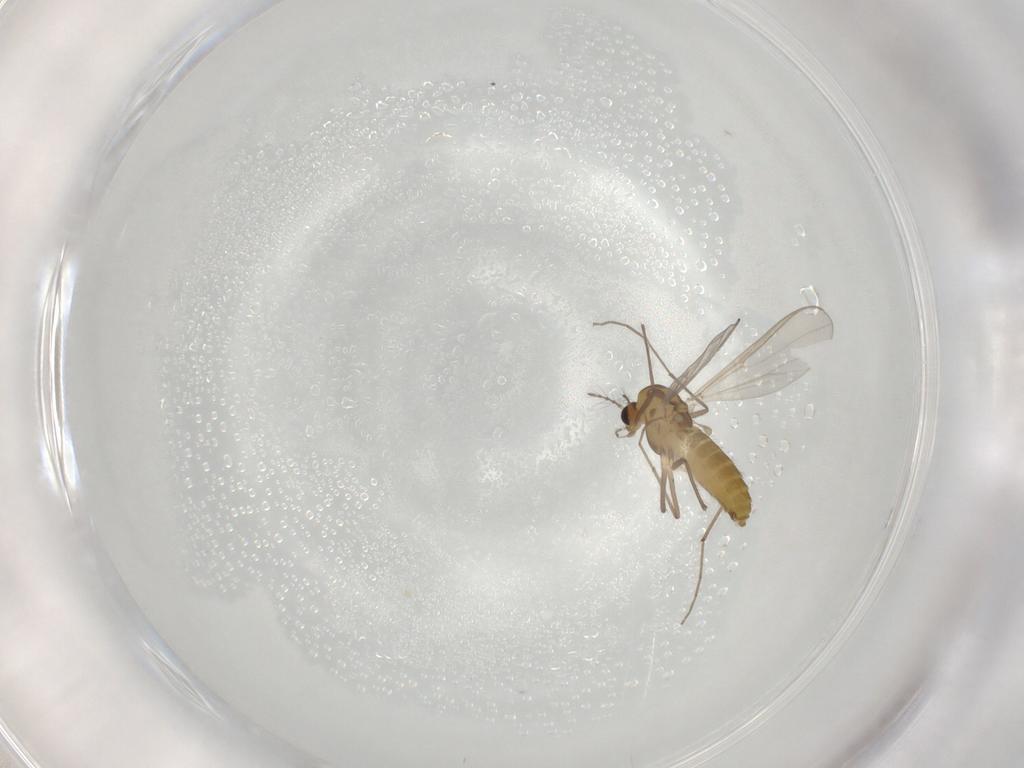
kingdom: Animalia
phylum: Arthropoda
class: Insecta
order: Diptera
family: Chironomidae
